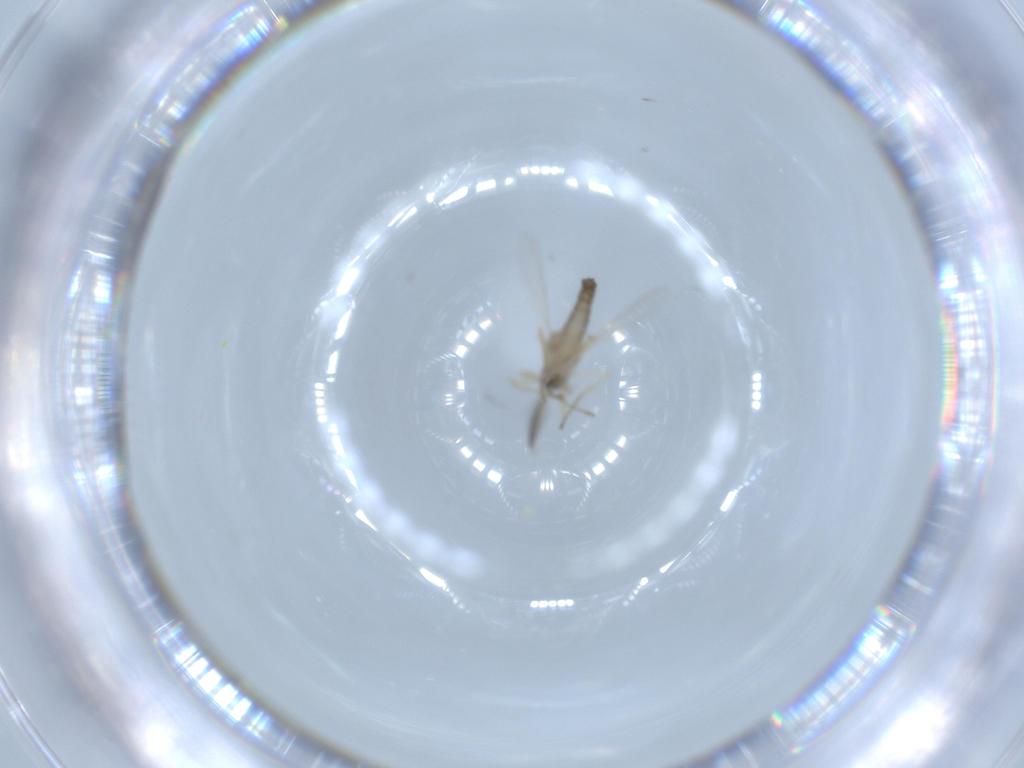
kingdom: Animalia
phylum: Arthropoda
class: Insecta
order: Diptera
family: Ceratopogonidae
